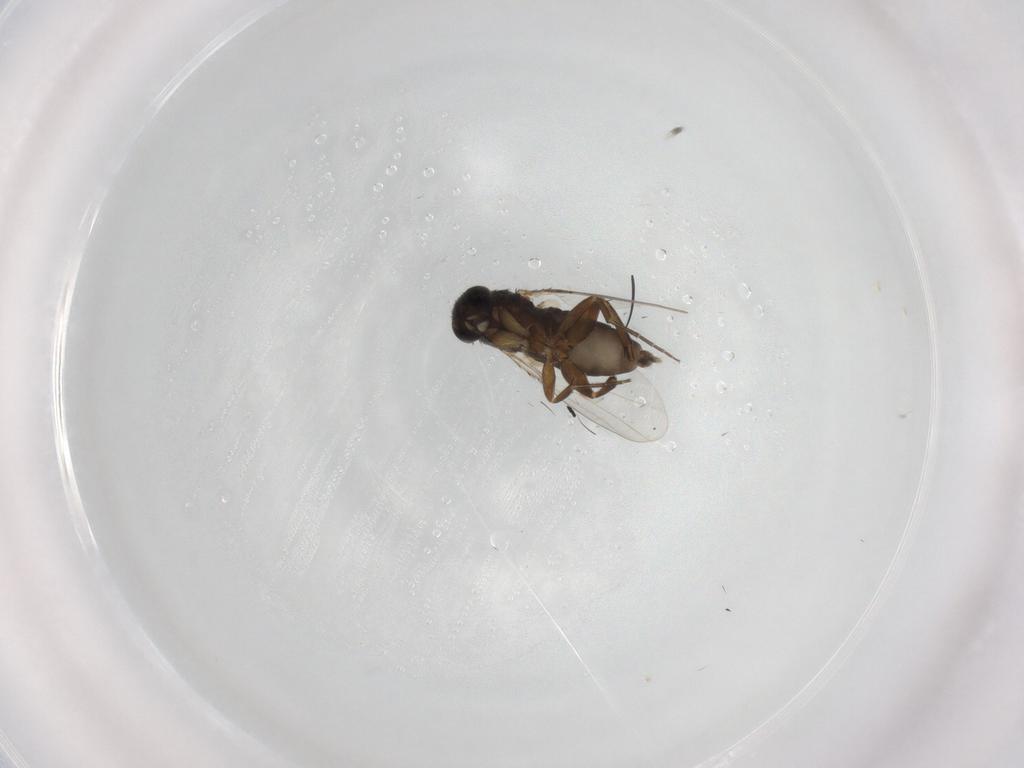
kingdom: Animalia
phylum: Arthropoda
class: Insecta
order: Diptera
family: Phoridae
